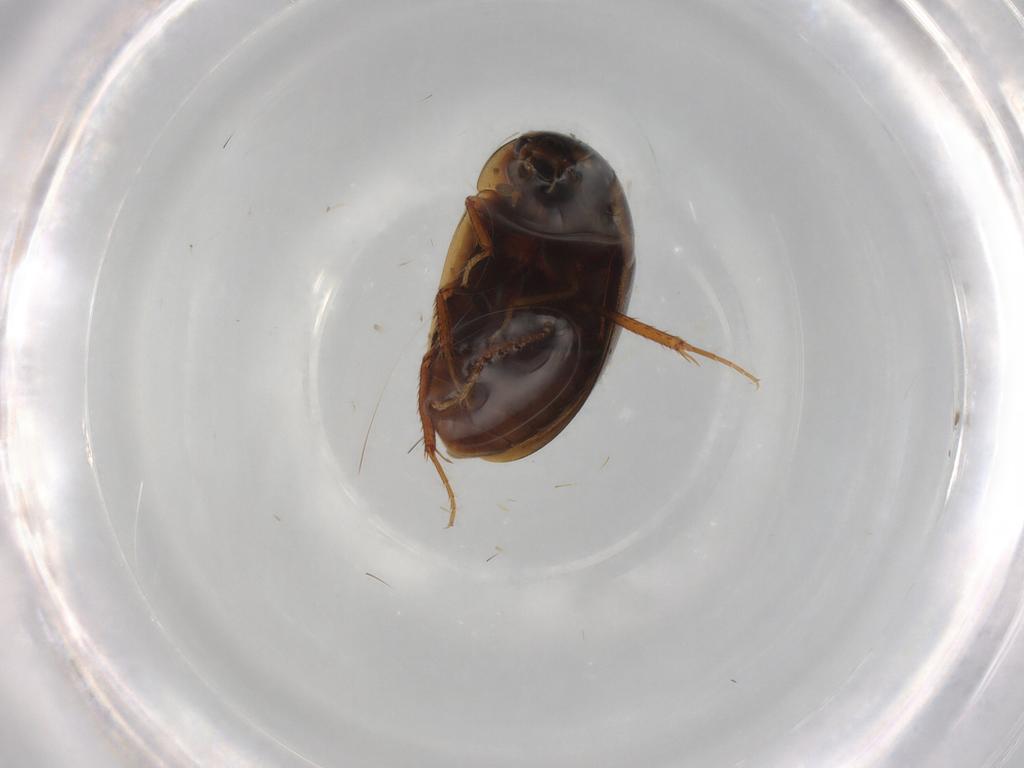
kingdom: Animalia
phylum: Arthropoda
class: Insecta
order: Coleoptera
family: Hydrophilidae
